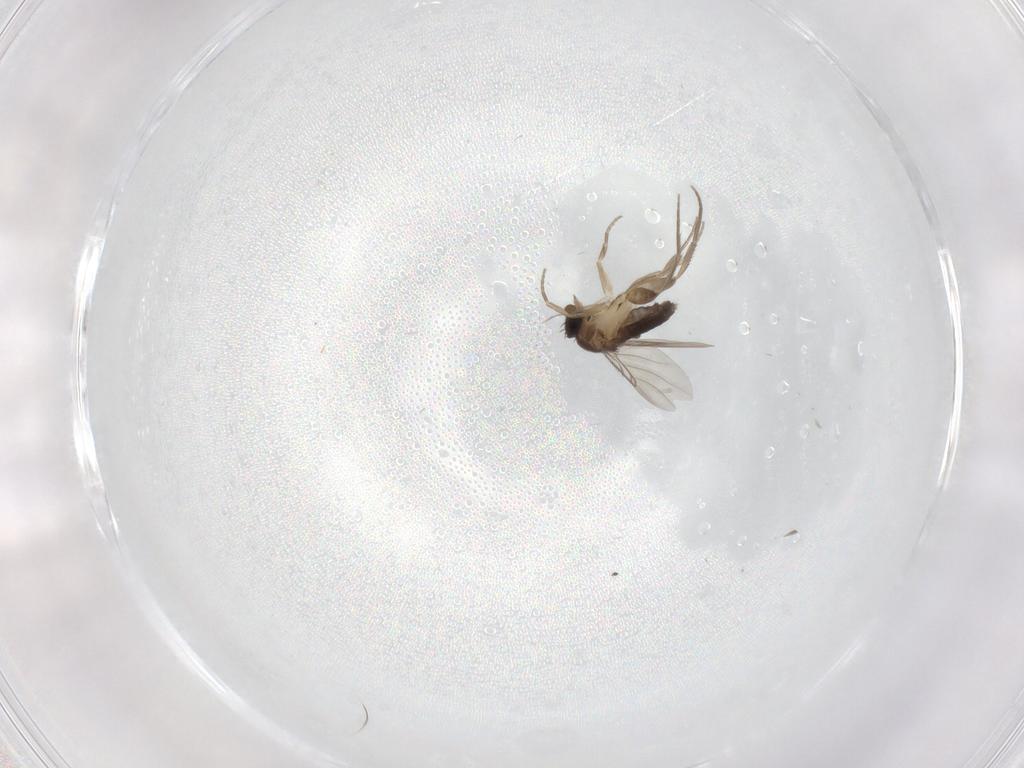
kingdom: Animalia
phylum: Arthropoda
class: Insecta
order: Diptera
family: Phoridae
